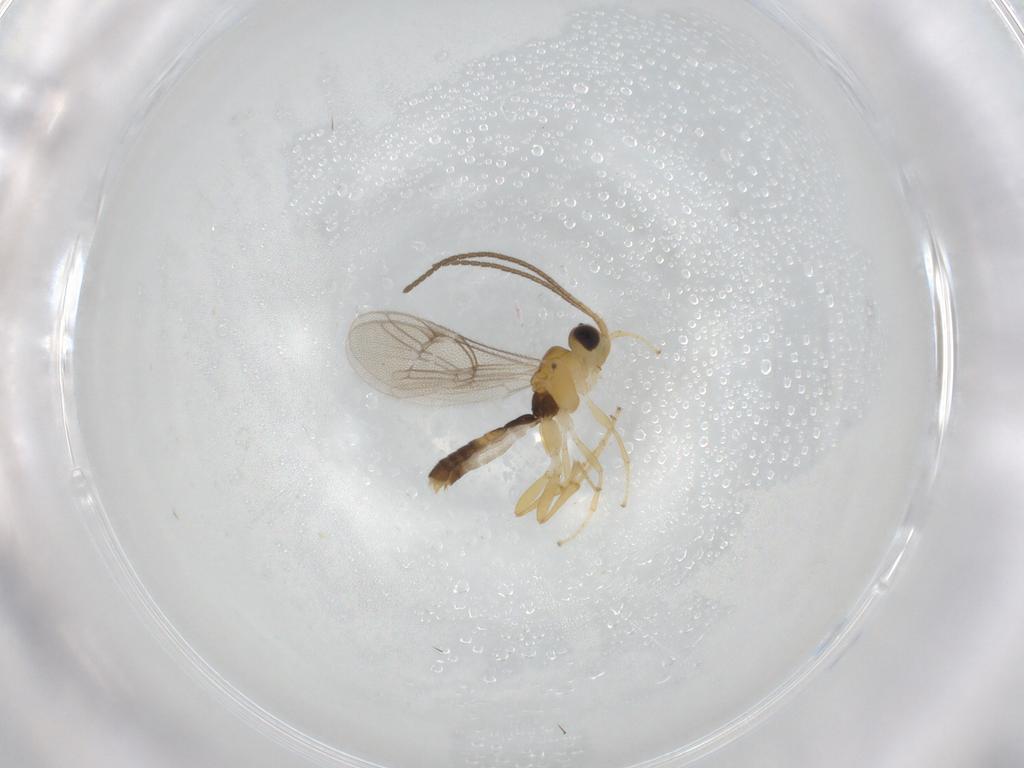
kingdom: Animalia
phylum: Arthropoda
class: Insecta
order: Hymenoptera
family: Ichneumonidae
